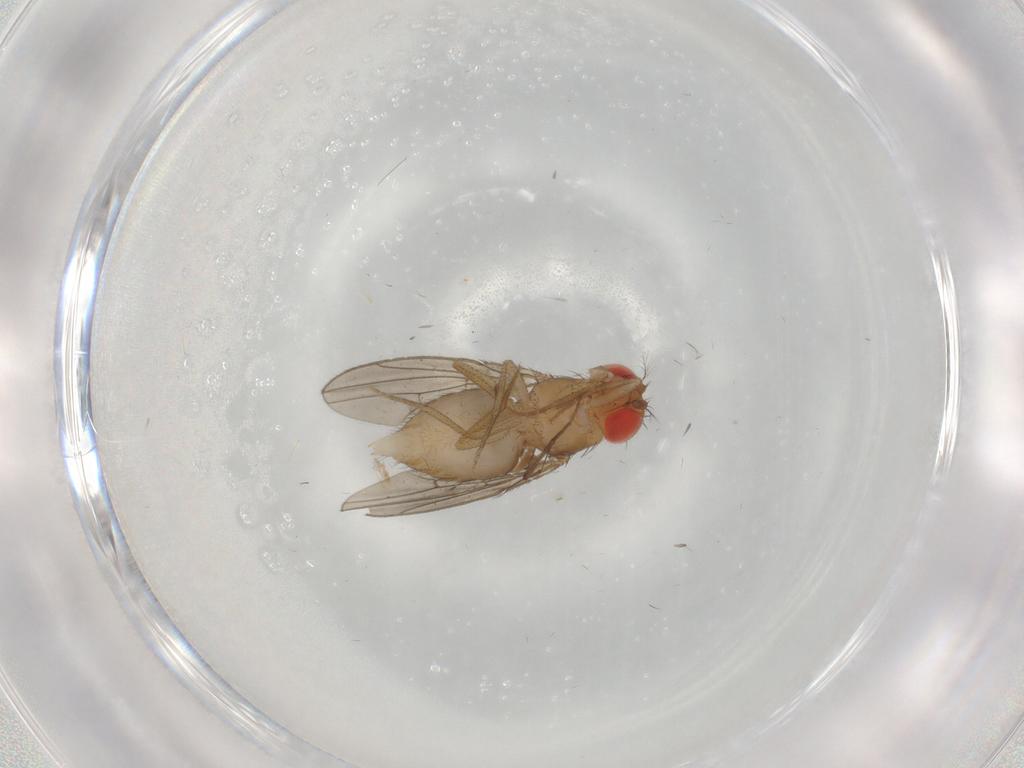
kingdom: Animalia
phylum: Arthropoda
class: Insecta
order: Diptera
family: Drosophilidae
